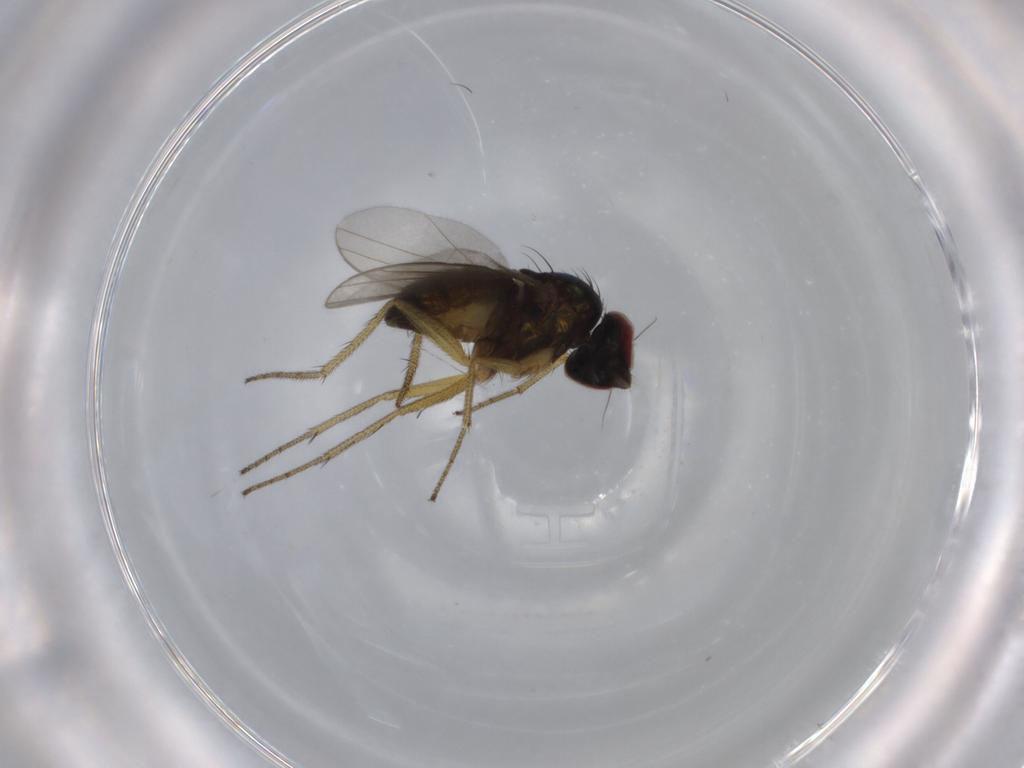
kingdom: Animalia
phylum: Arthropoda
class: Insecta
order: Diptera
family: Dolichopodidae
